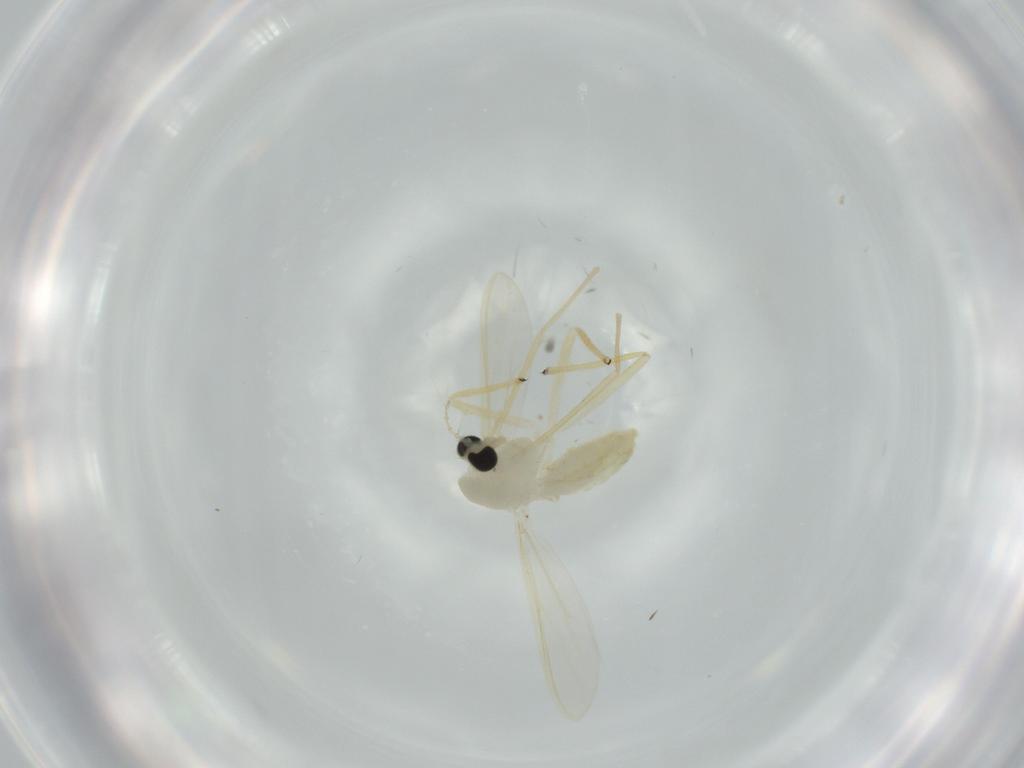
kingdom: Animalia
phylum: Arthropoda
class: Insecta
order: Diptera
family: Chironomidae
